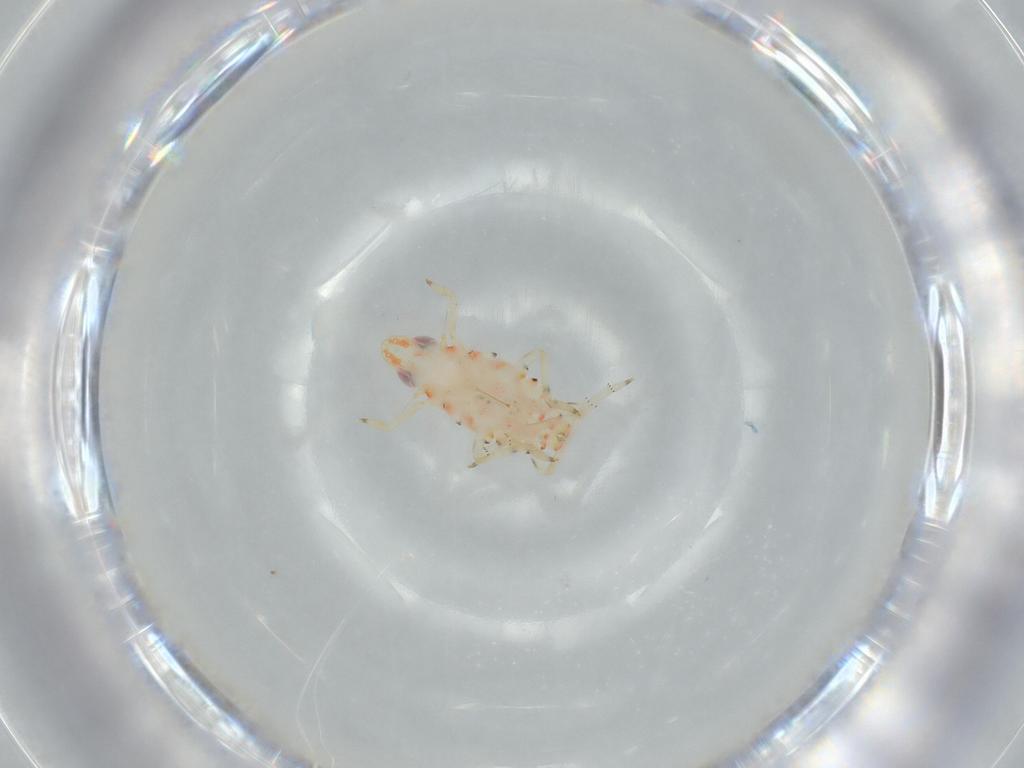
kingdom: Animalia
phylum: Arthropoda
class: Insecta
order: Hemiptera
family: Tropiduchidae
